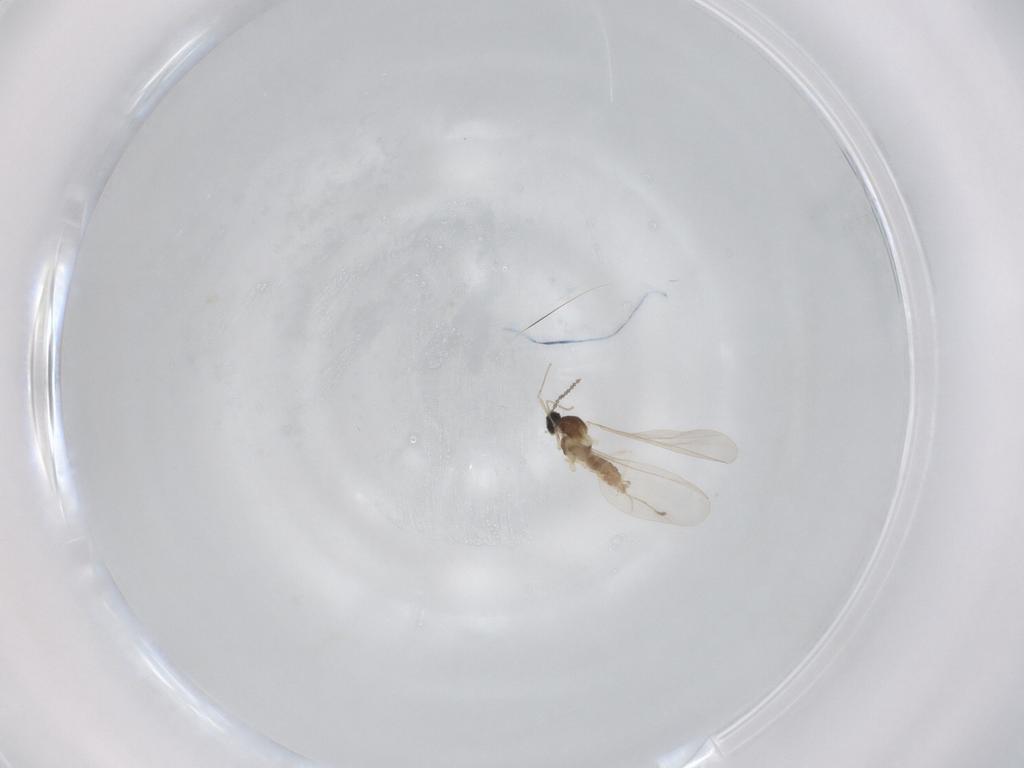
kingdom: Animalia
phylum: Arthropoda
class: Insecta
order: Diptera
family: Cecidomyiidae
